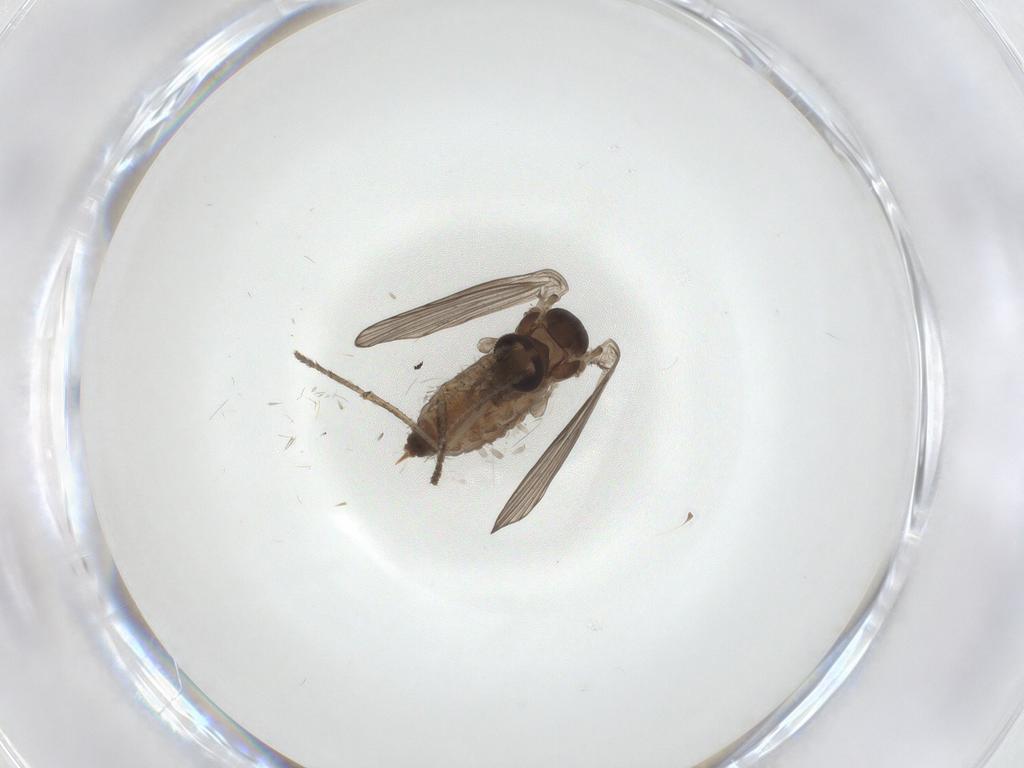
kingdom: Animalia
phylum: Arthropoda
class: Insecta
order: Diptera
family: Psychodidae
